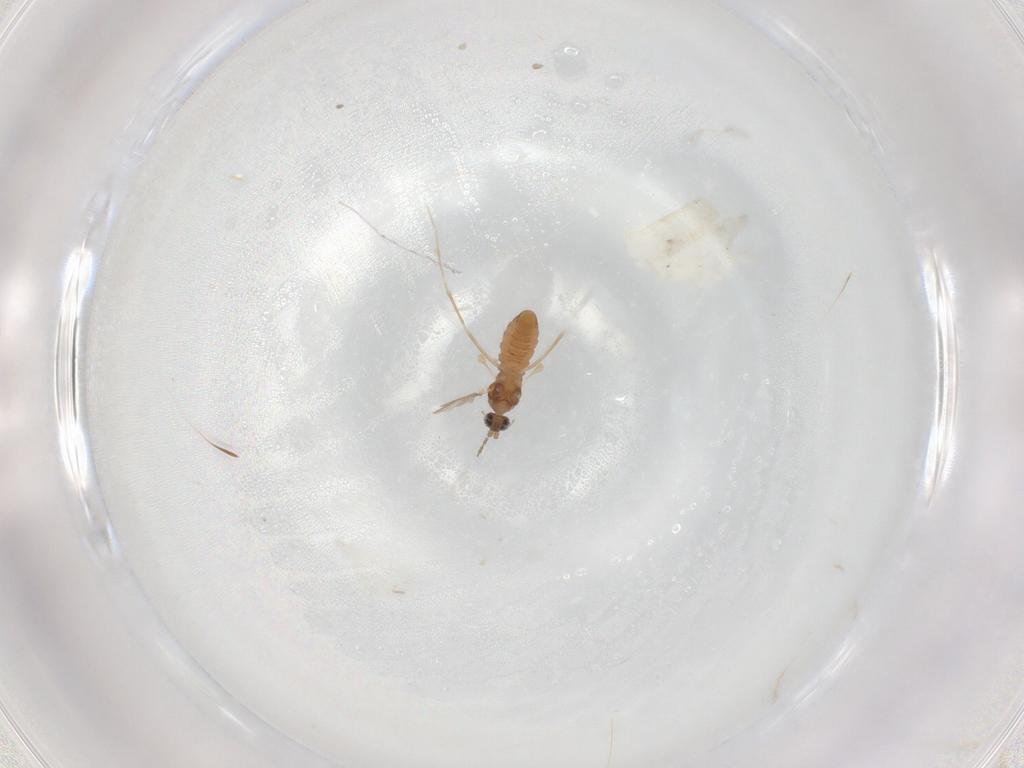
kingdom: Animalia
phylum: Arthropoda
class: Insecta
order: Diptera
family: Cecidomyiidae
